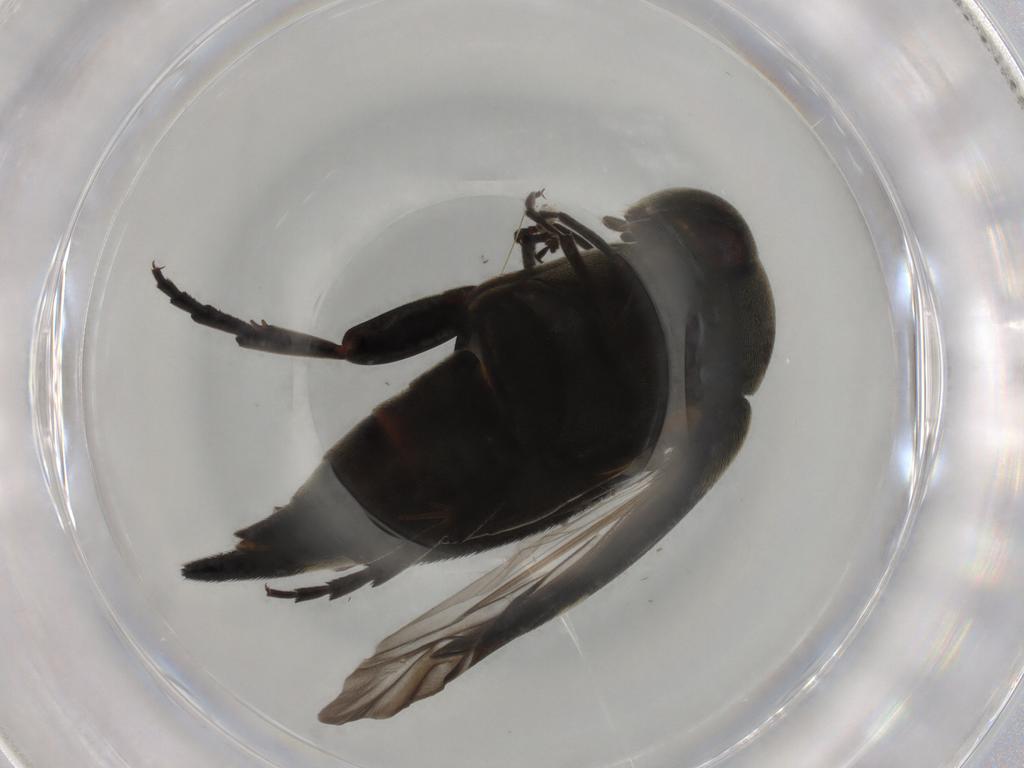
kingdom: Animalia
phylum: Arthropoda
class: Insecta
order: Coleoptera
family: Mordellidae
